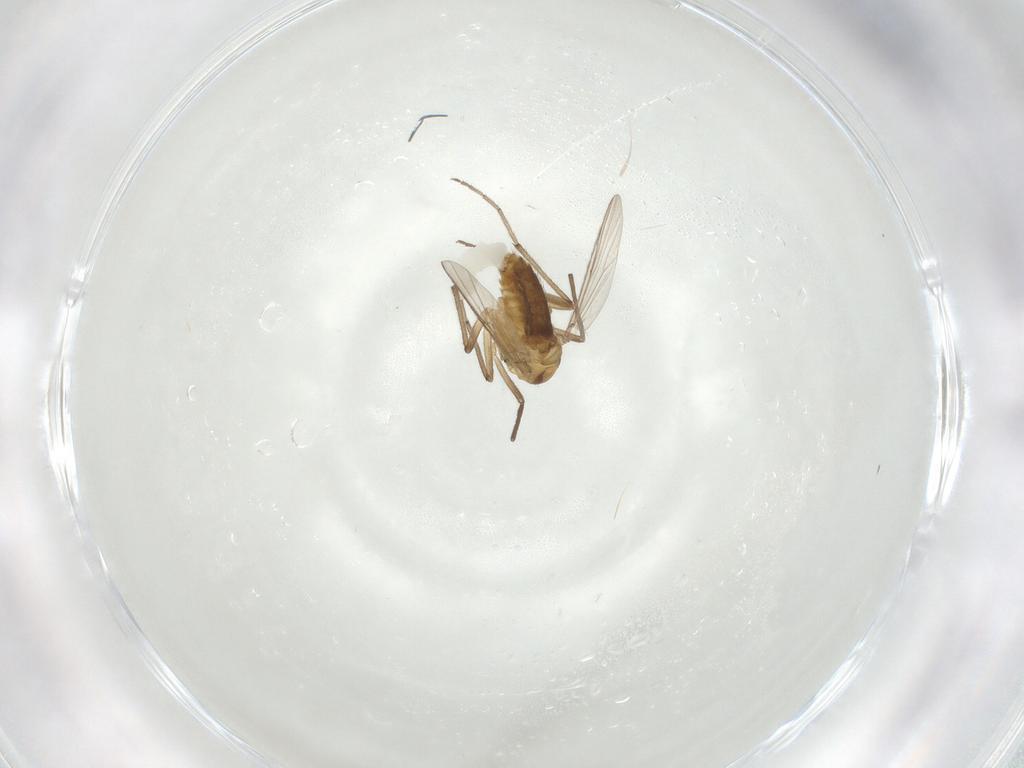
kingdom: Animalia
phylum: Arthropoda
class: Insecta
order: Diptera
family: Chironomidae
